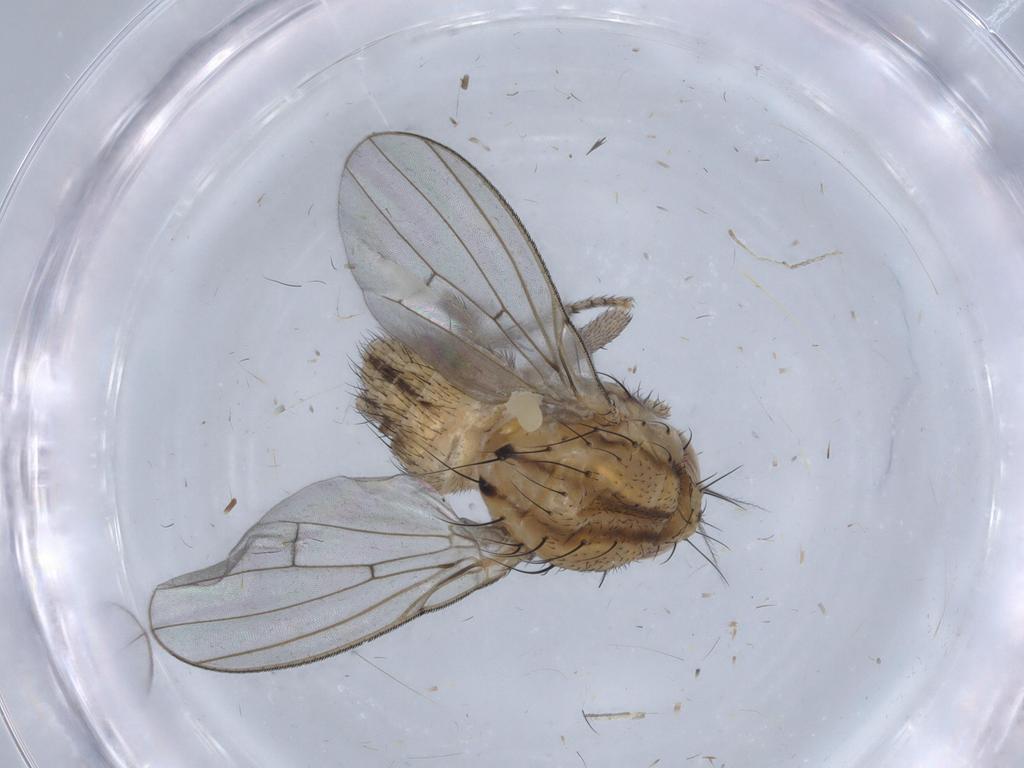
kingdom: Animalia
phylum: Arthropoda
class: Insecta
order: Diptera
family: Lauxaniidae
